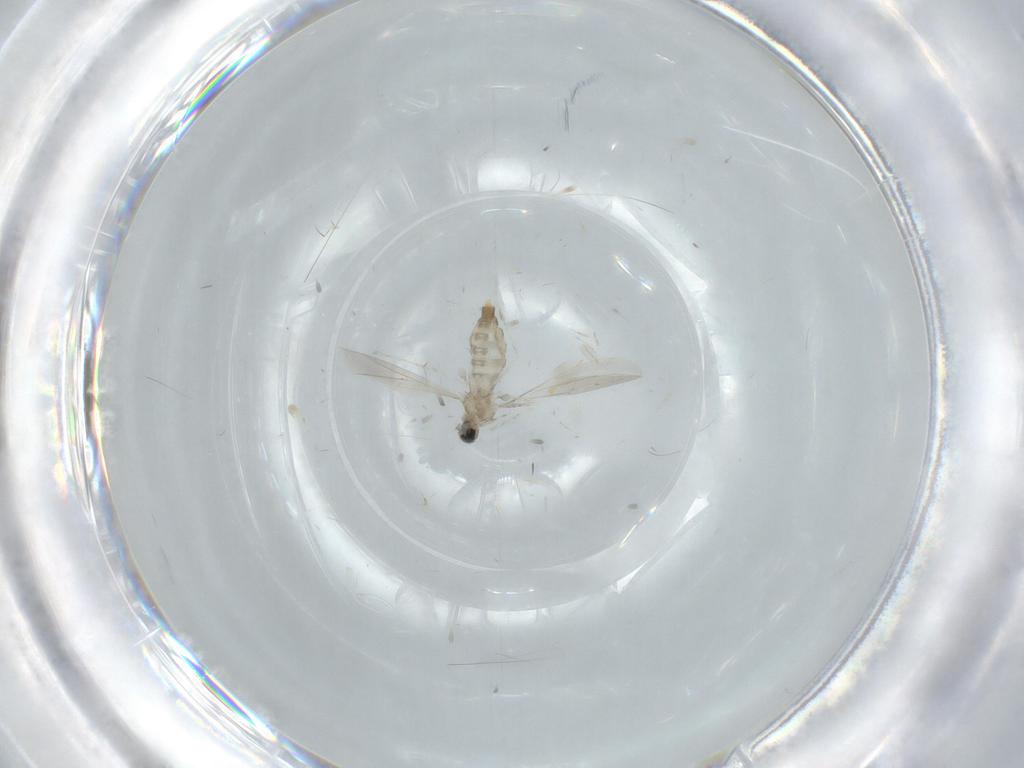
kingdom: Animalia
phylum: Arthropoda
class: Insecta
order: Diptera
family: Cecidomyiidae
